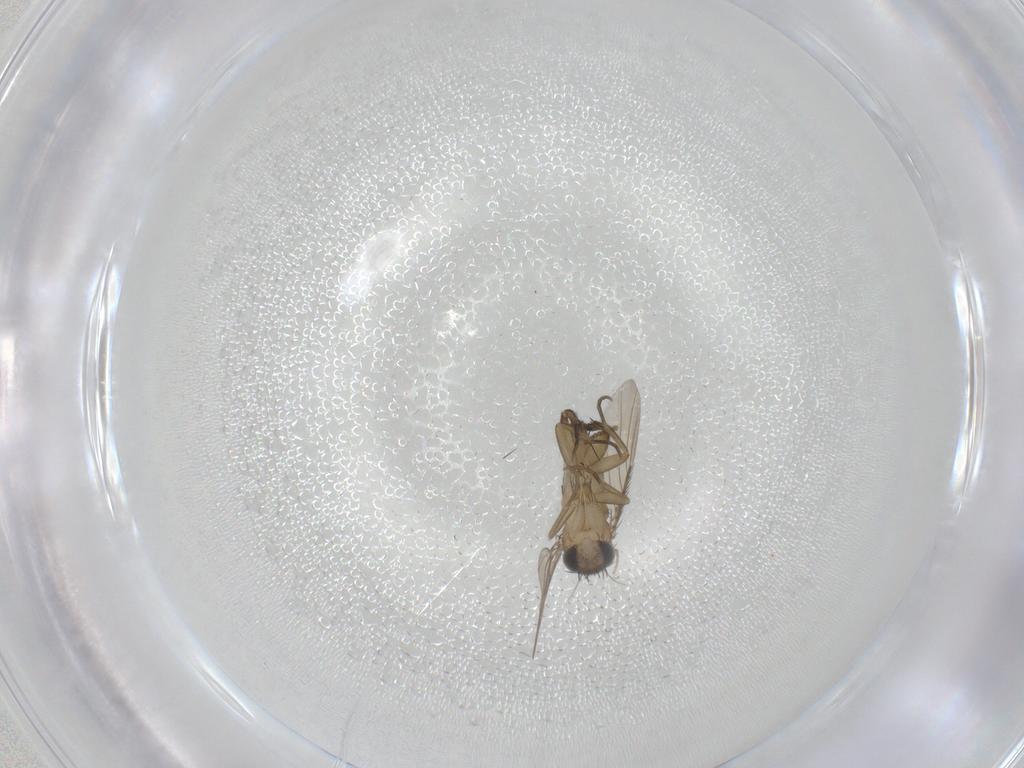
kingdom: Animalia
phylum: Arthropoda
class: Insecta
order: Diptera
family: Phoridae
